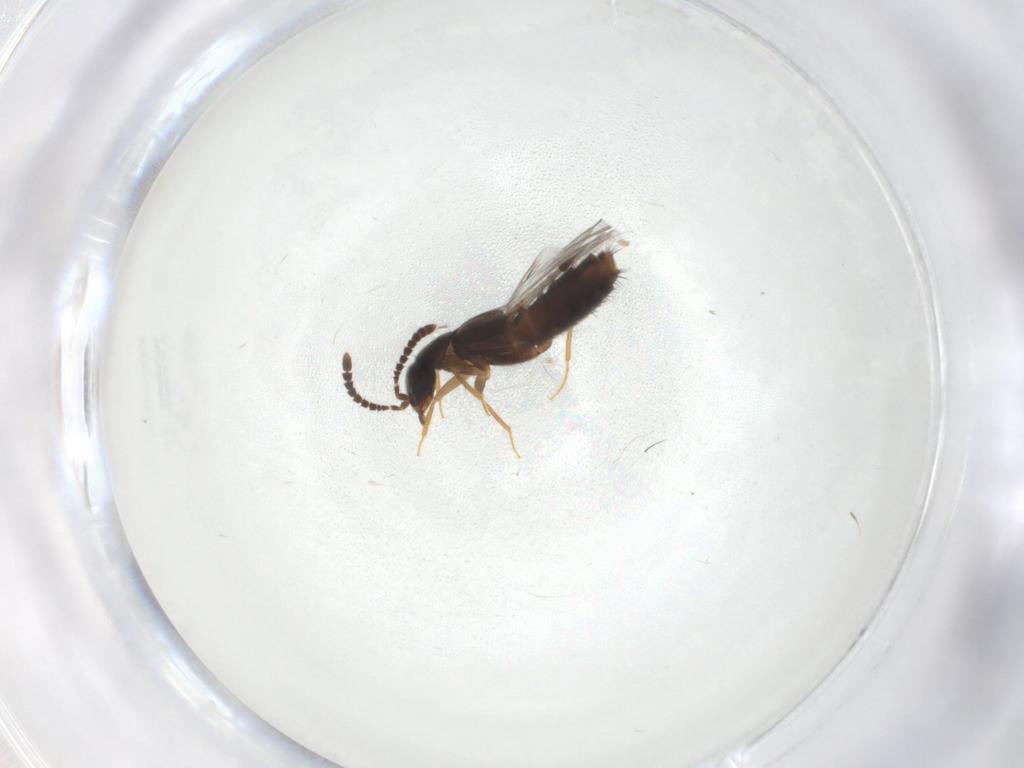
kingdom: Animalia
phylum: Arthropoda
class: Insecta
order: Coleoptera
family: Staphylinidae
